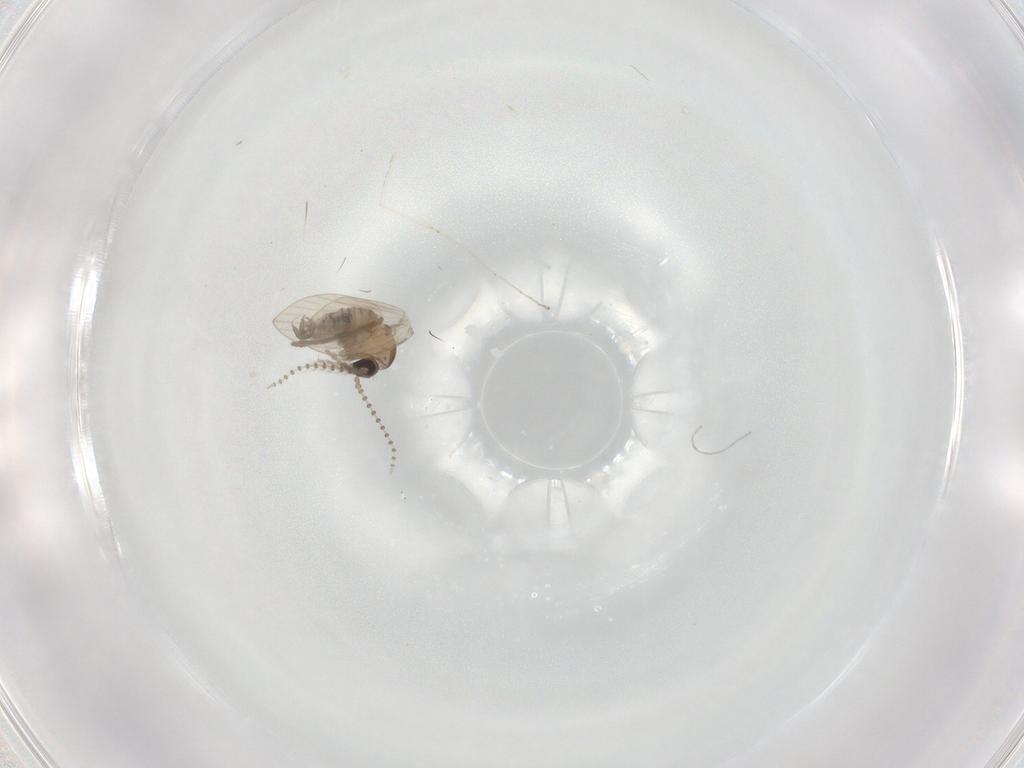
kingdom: Animalia
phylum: Arthropoda
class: Insecta
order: Diptera
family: Psychodidae
